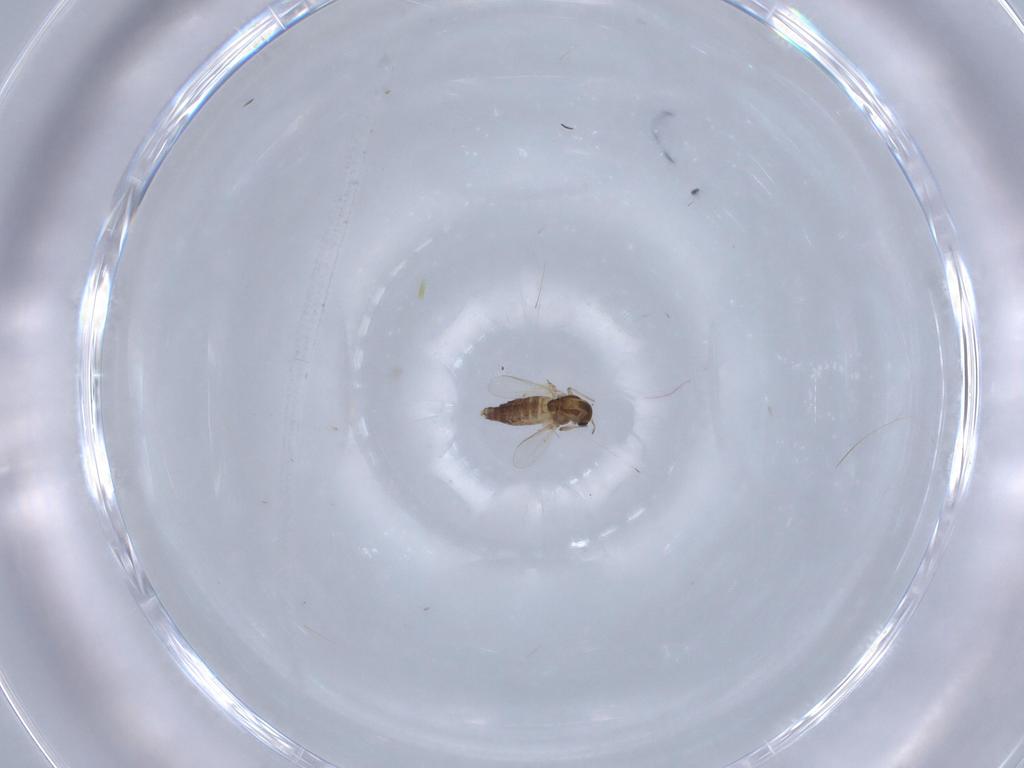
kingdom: Animalia
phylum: Arthropoda
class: Insecta
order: Diptera
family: Chironomidae
